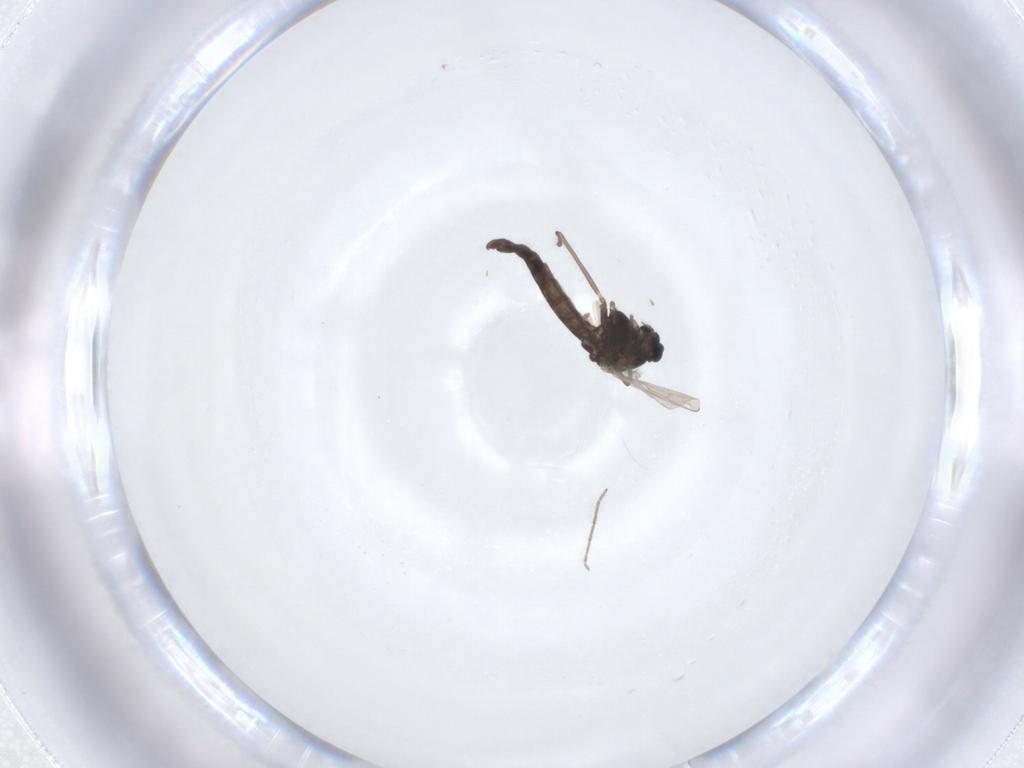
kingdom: Animalia
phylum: Arthropoda
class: Insecta
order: Diptera
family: Chironomidae
